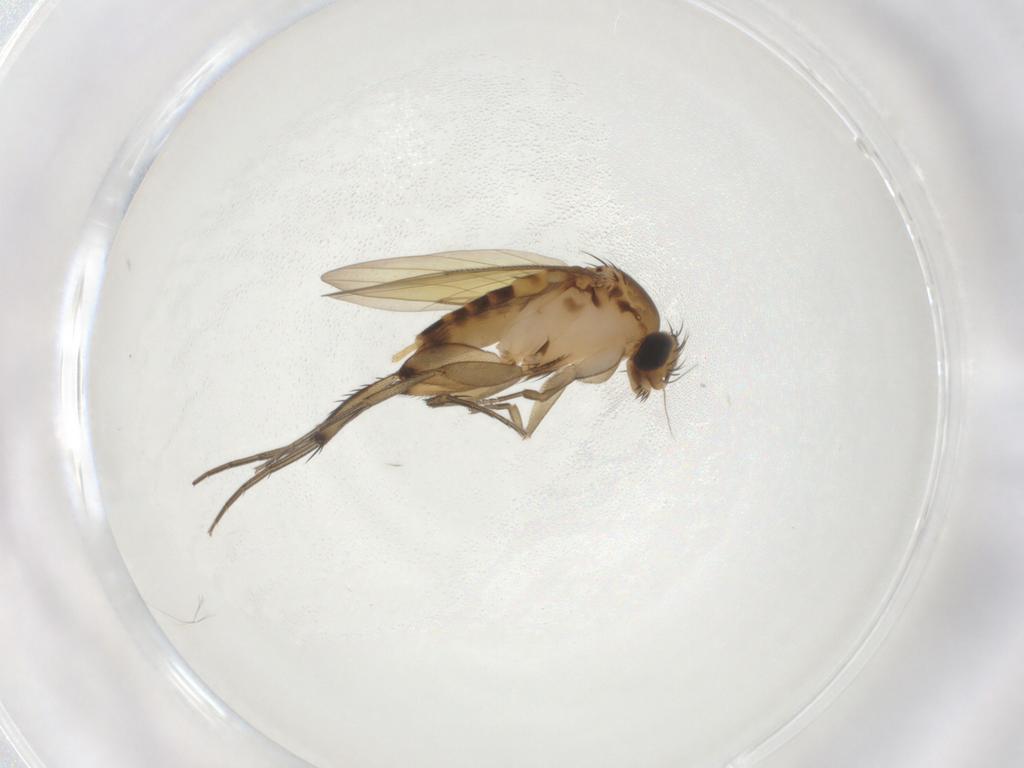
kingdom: Animalia
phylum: Arthropoda
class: Insecta
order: Diptera
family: Phoridae
